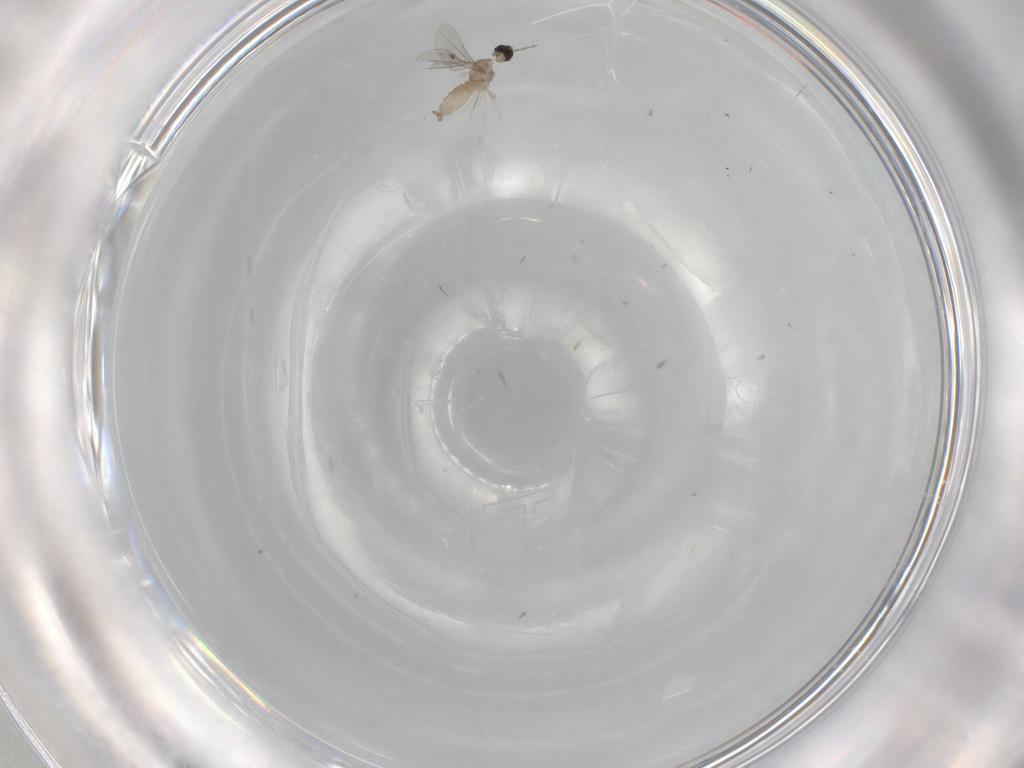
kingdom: Animalia
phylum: Arthropoda
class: Insecta
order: Diptera
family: Cecidomyiidae
